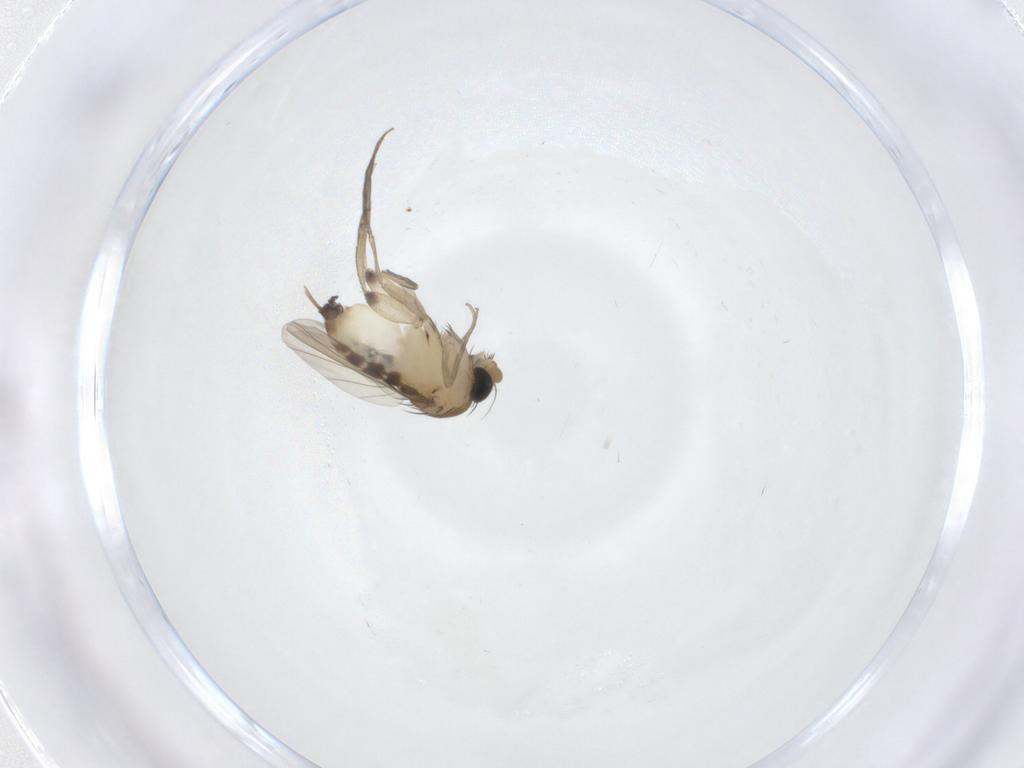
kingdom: Animalia
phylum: Arthropoda
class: Insecta
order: Diptera
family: Phoridae
